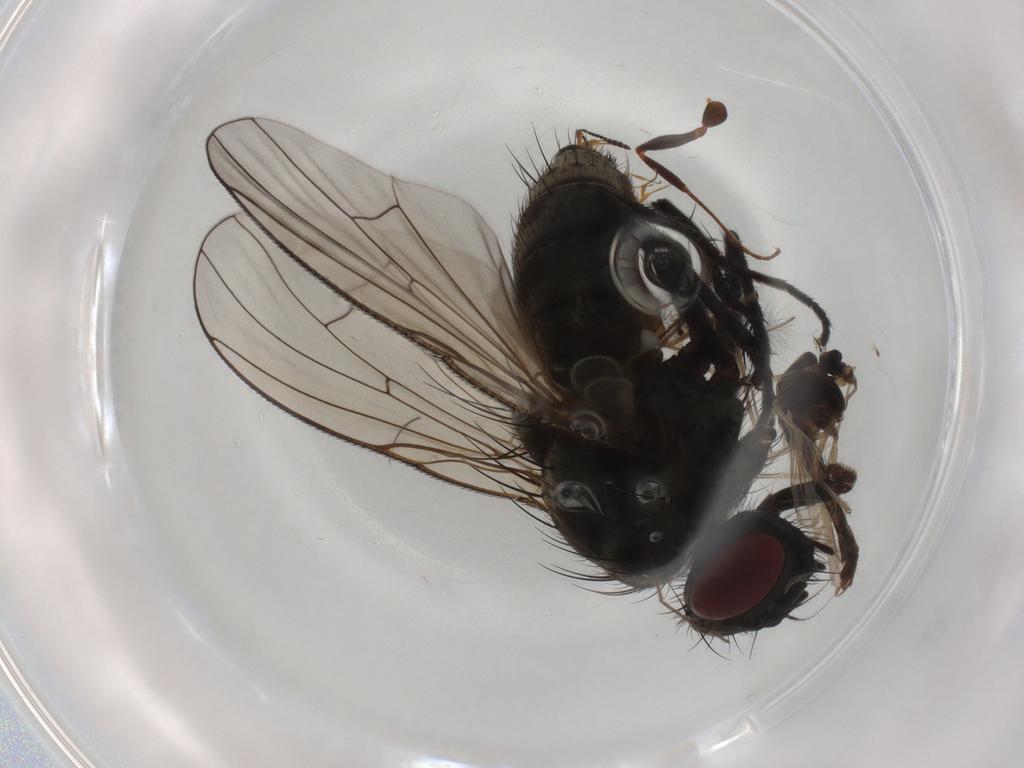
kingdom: Animalia
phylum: Arthropoda
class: Insecta
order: Diptera
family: Muscidae
